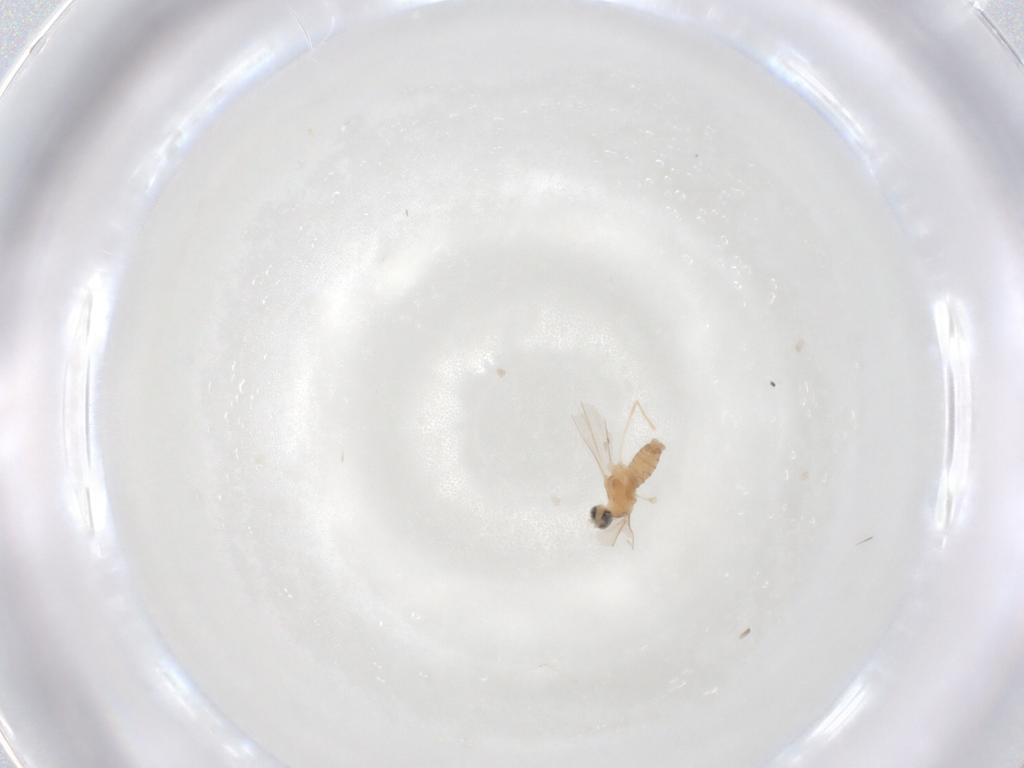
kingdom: Animalia
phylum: Arthropoda
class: Insecta
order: Diptera
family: Cecidomyiidae
